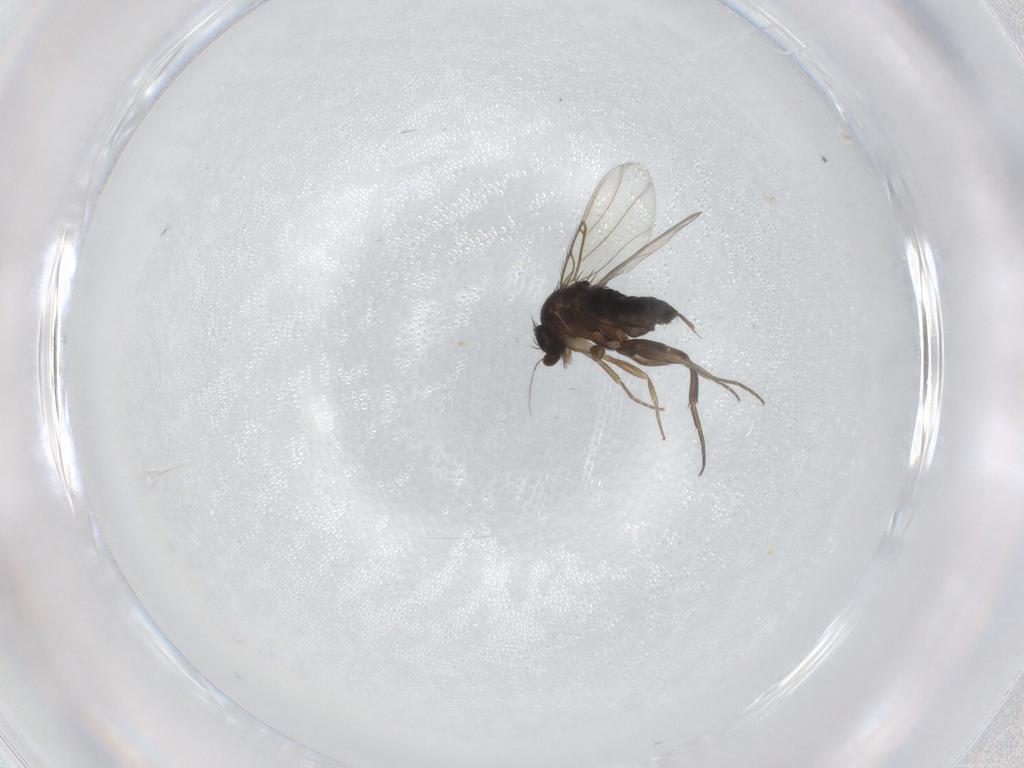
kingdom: Animalia
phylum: Arthropoda
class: Insecta
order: Diptera
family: Phoridae
